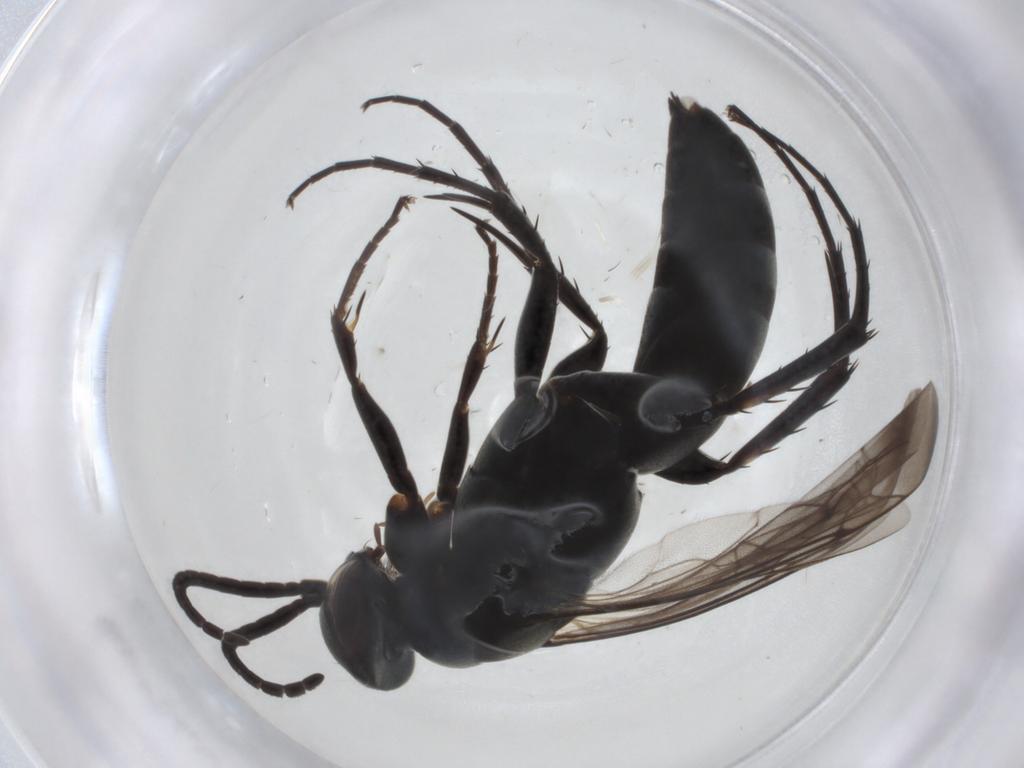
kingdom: Animalia
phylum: Arthropoda
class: Insecta
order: Hymenoptera
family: Pompilidae
